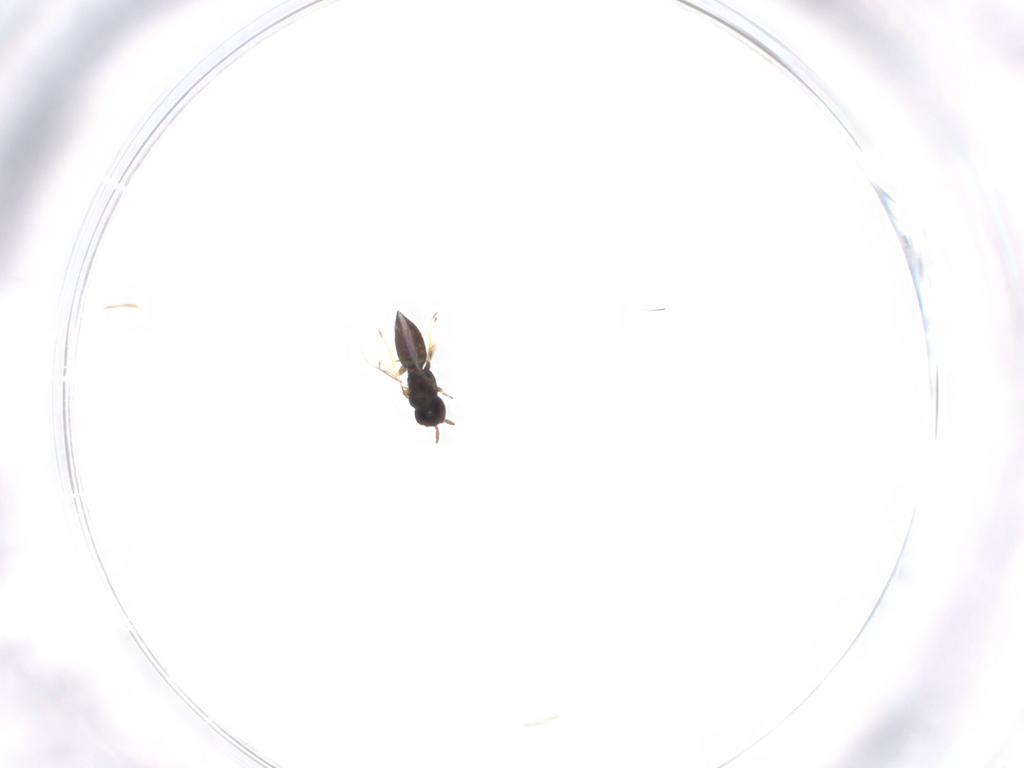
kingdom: Animalia
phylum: Arthropoda
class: Insecta
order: Hymenoptera
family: Eulophidae
